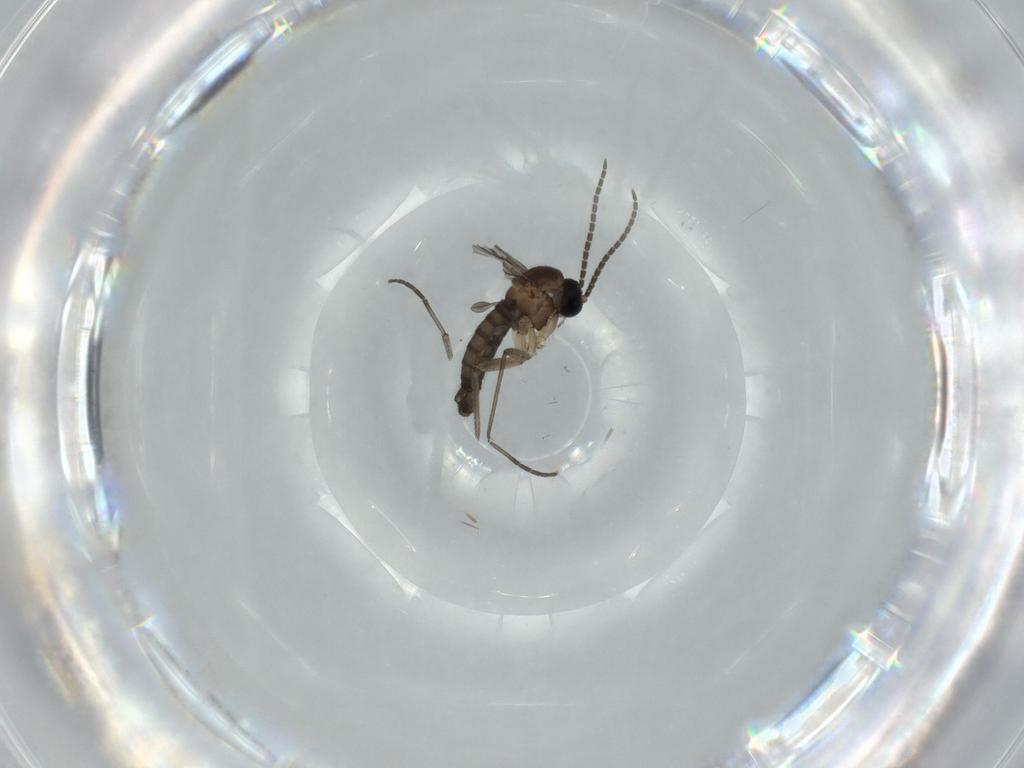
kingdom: Animalia
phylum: Arthropoda
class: Insecta
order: Diptera
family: Sciaridae
